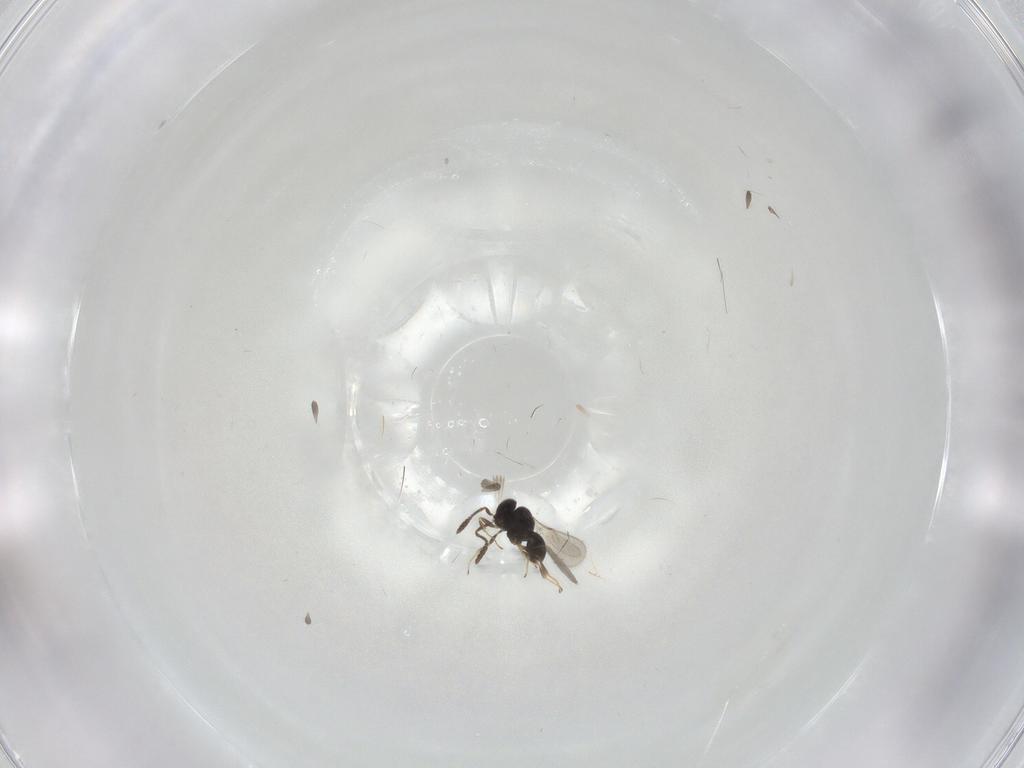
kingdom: Animalia
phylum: Arthropoda
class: Insecta
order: Hymenoptera
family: Scelionidae
